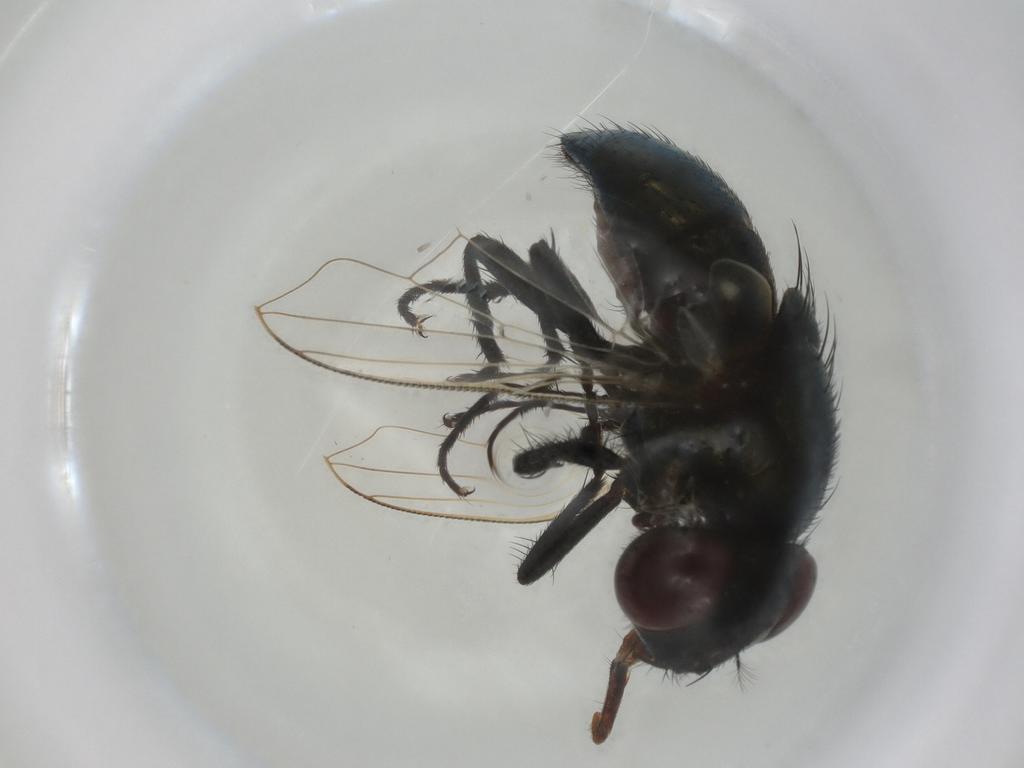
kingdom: Animalia
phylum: Arthropoda
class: Insecta
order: Diptera
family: Muscidae
